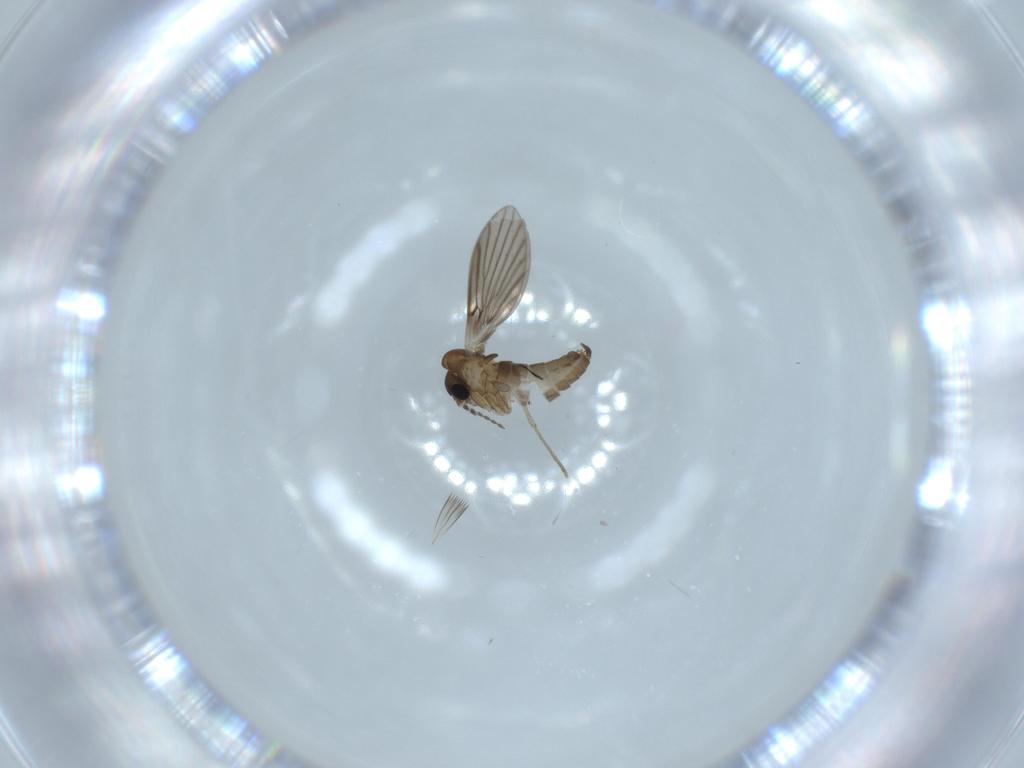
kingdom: Animalia
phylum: Arthropoda
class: Insecta
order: Diptera
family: Psychodidae
